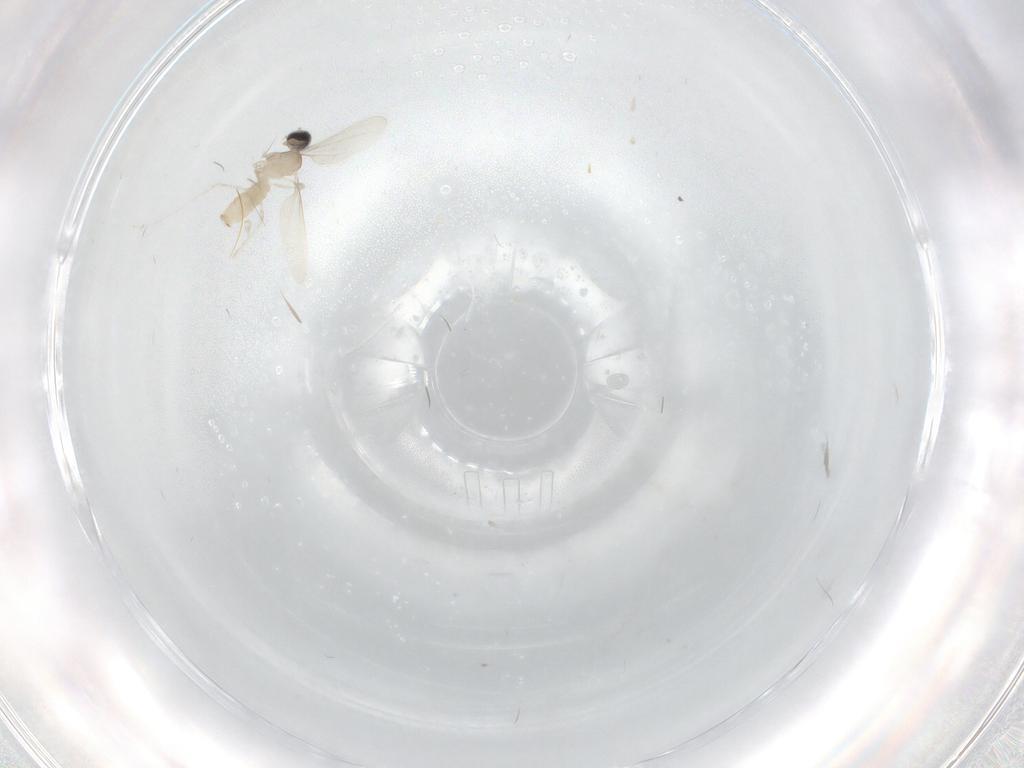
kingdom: Animalia
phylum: Arthropoda
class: Insecta
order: Diptera
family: Cecidomyiidae
